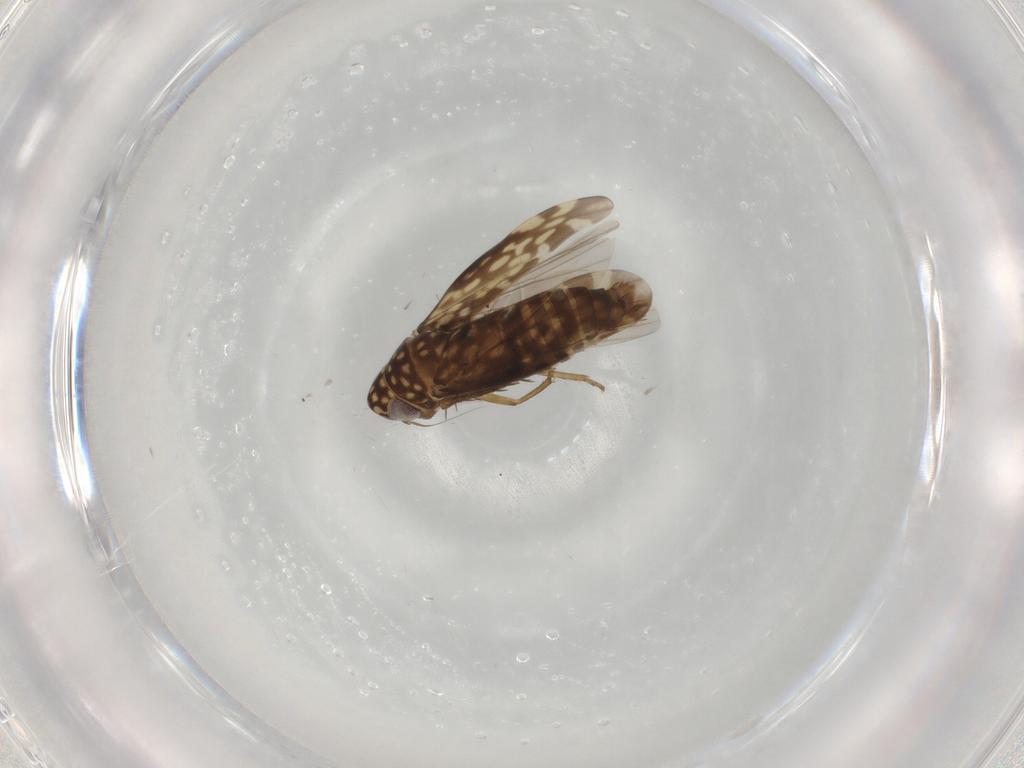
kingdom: Animalia
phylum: Arthropoda
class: Insecta
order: Hemiptera
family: Cicadellidae
